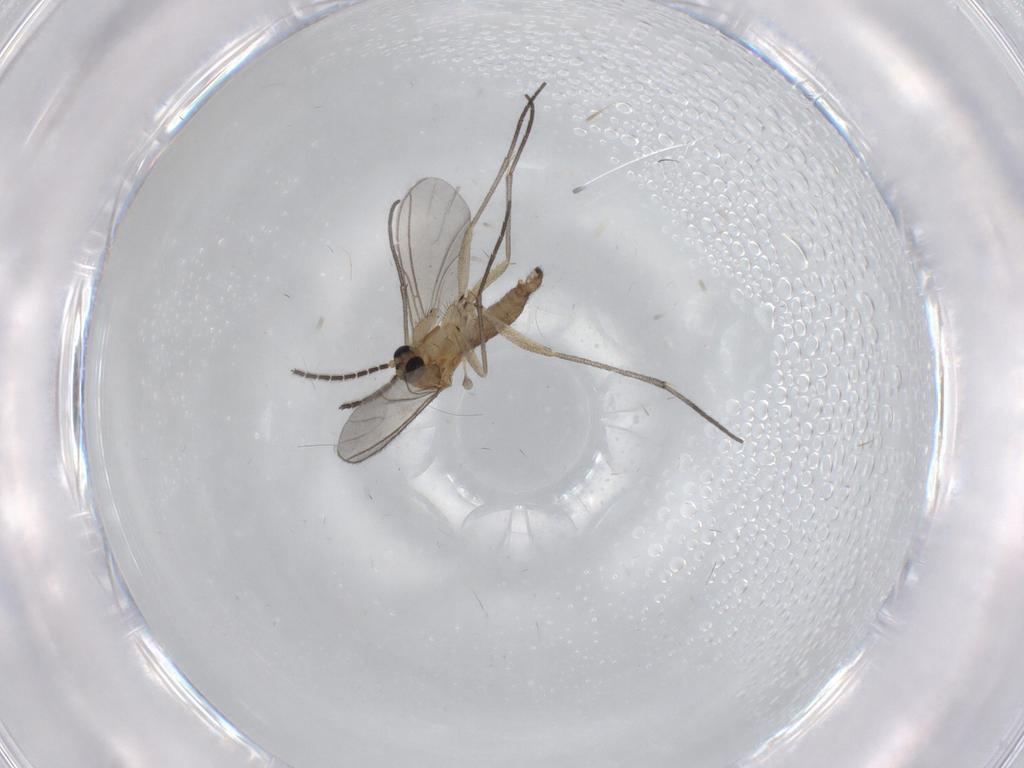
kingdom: Animalia
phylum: Arthropoda
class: Insecta
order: Diptera
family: Sciaridae
